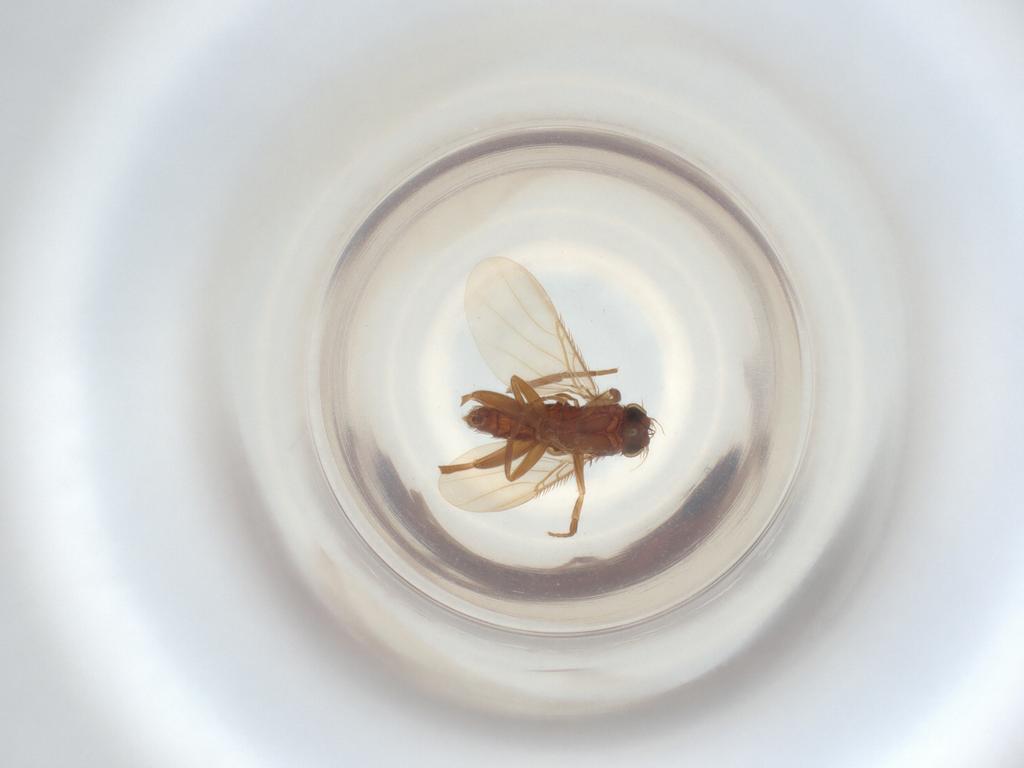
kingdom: Animalia
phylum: Arthropoda
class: Insecta
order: Diptera
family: Phoridae
